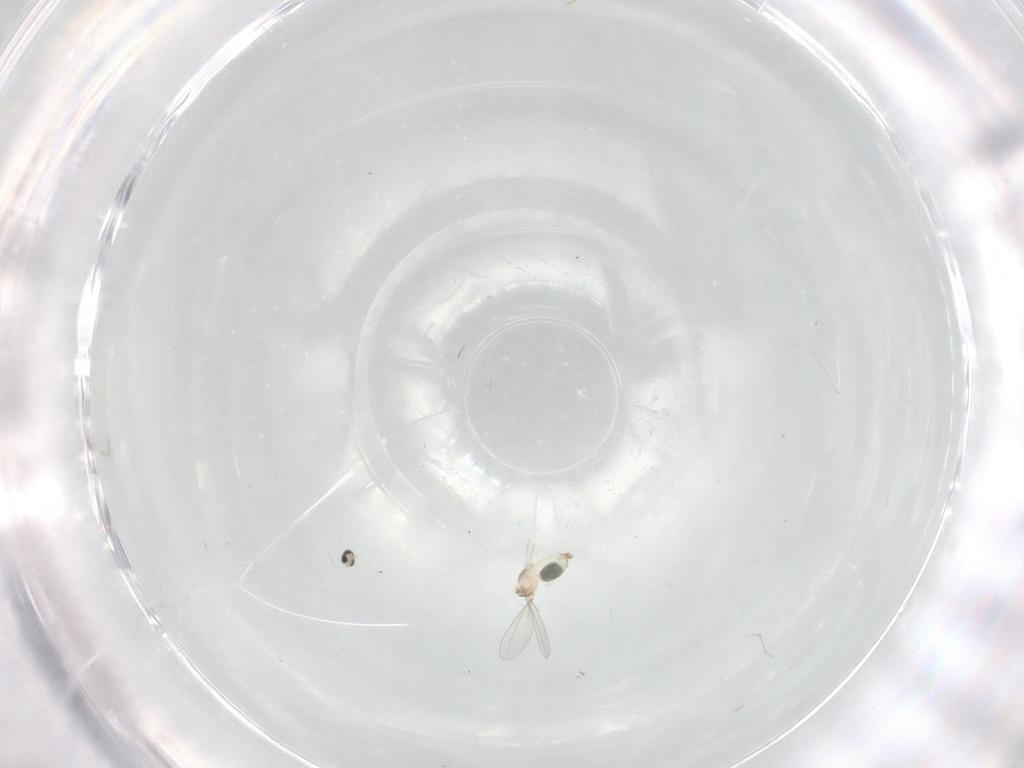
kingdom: Animalia
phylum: Arthropoda
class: Insecta
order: Diptera
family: Cecidomyiidae
